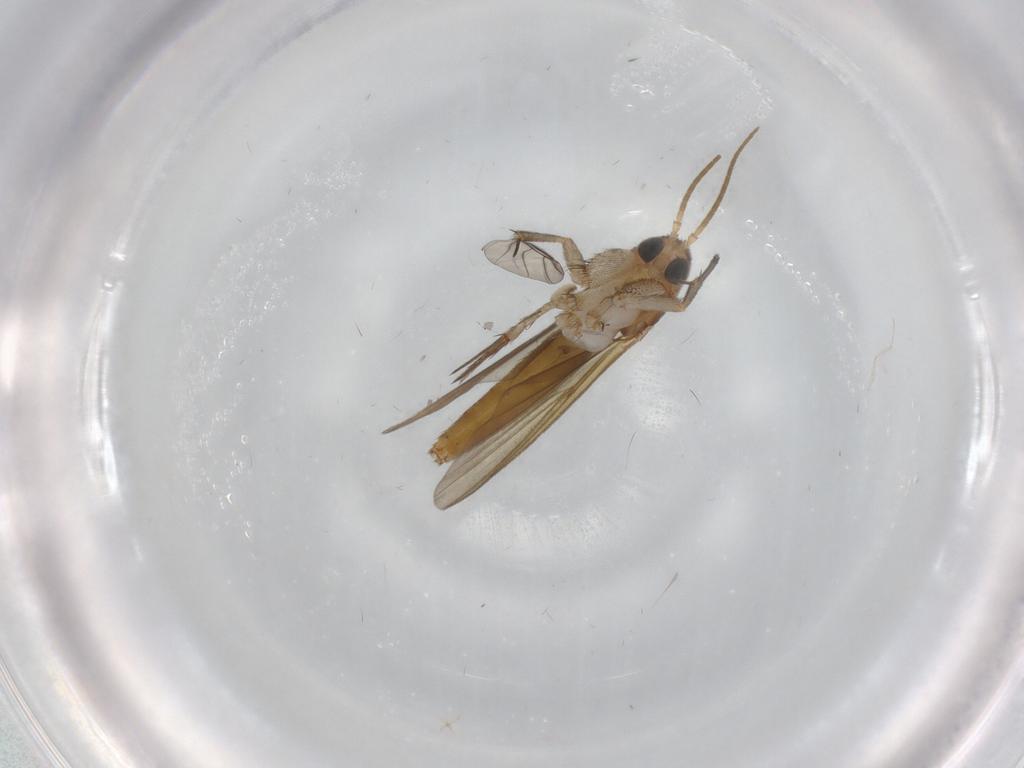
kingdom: Animalia
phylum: Arthropoda
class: Insecta
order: Diptera
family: Mycetophilidae
